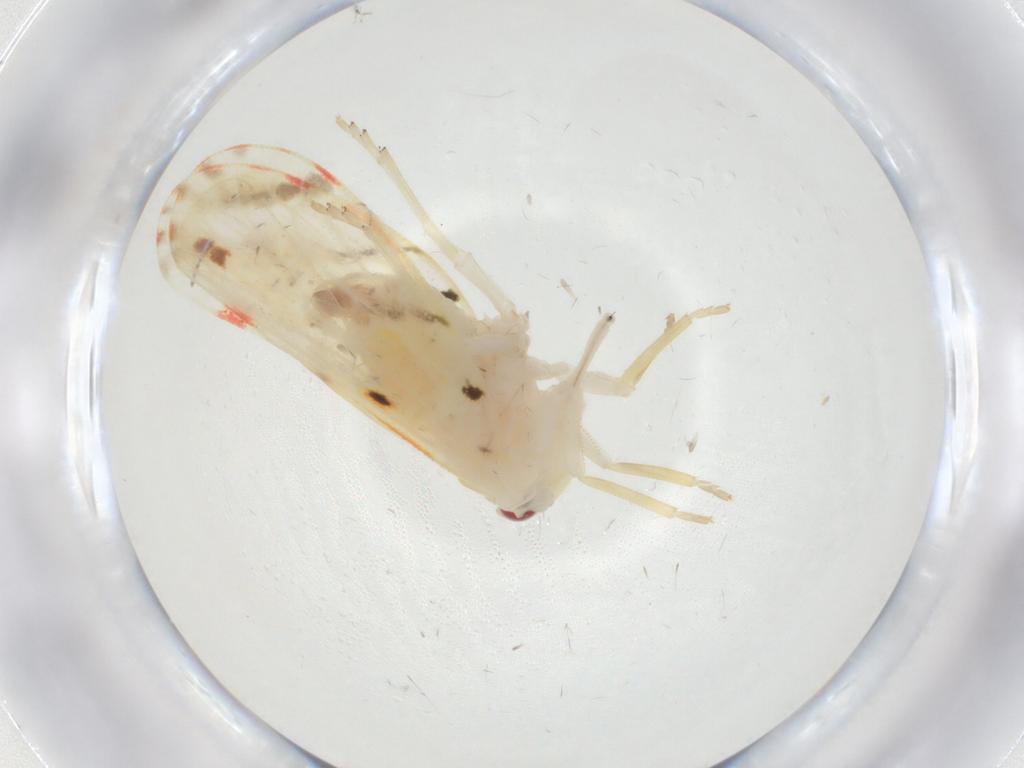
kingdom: Animalia
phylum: Arthropoda
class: Insecta
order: Hemiptera
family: Derbidae
